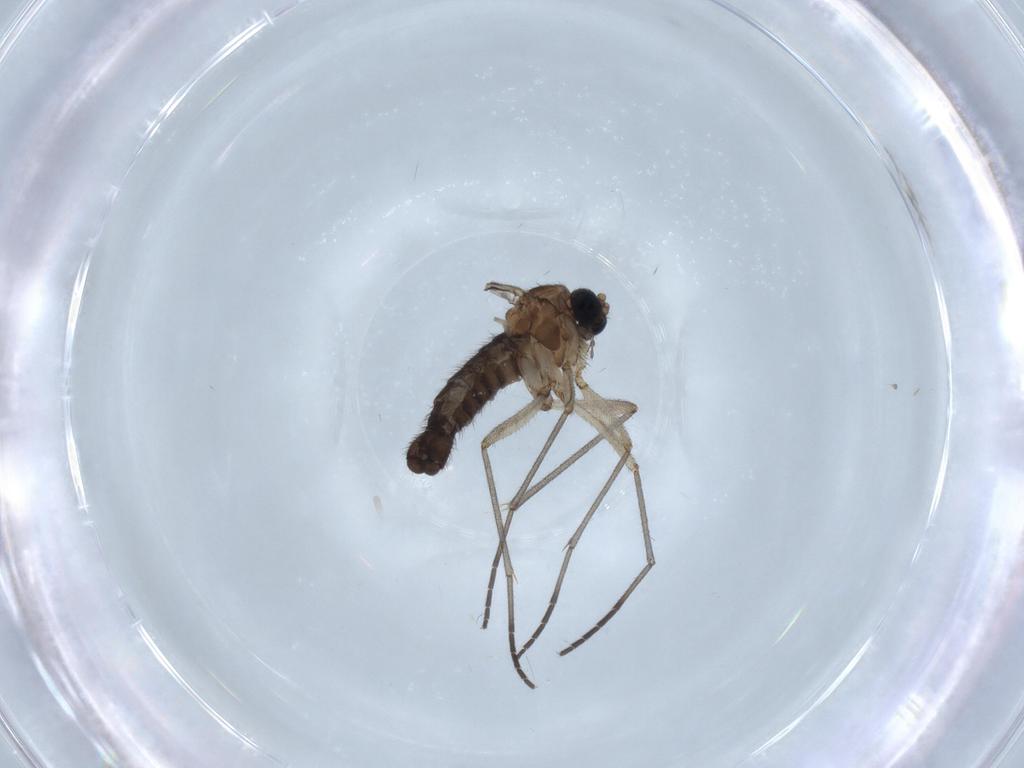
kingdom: Animalia
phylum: Arthropoda
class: Insecta
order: Diptera
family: Sciaridae
